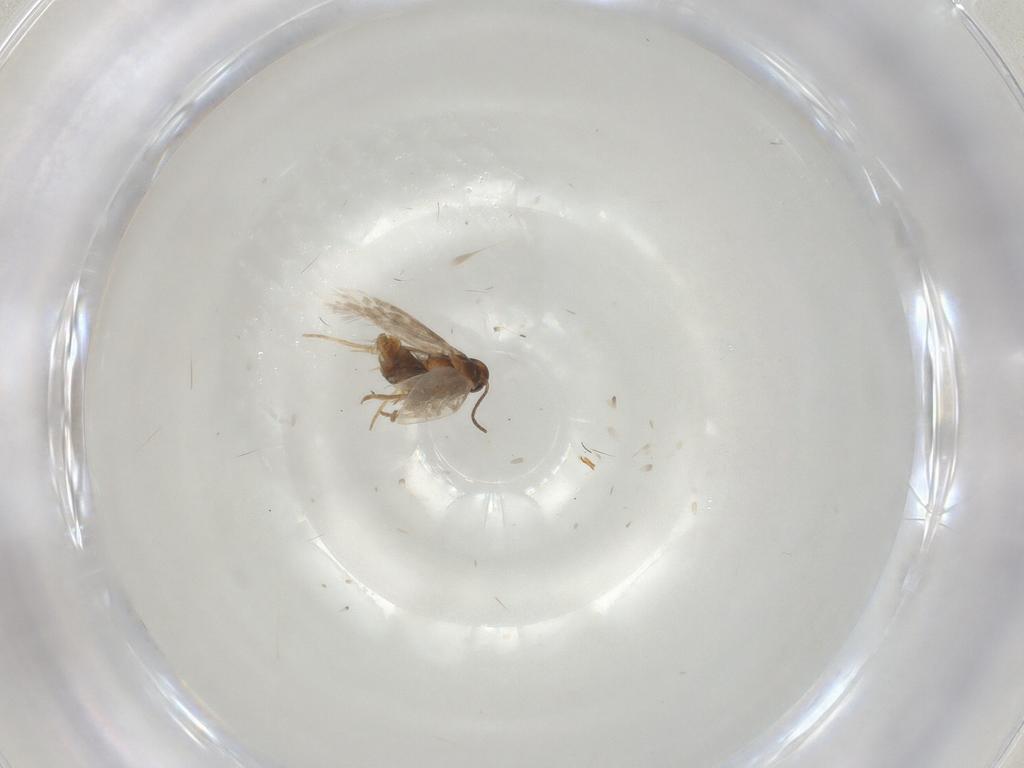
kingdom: Animalia
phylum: Arthropoda
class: Insecta
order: Lepidoptera
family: Heliozelidae
